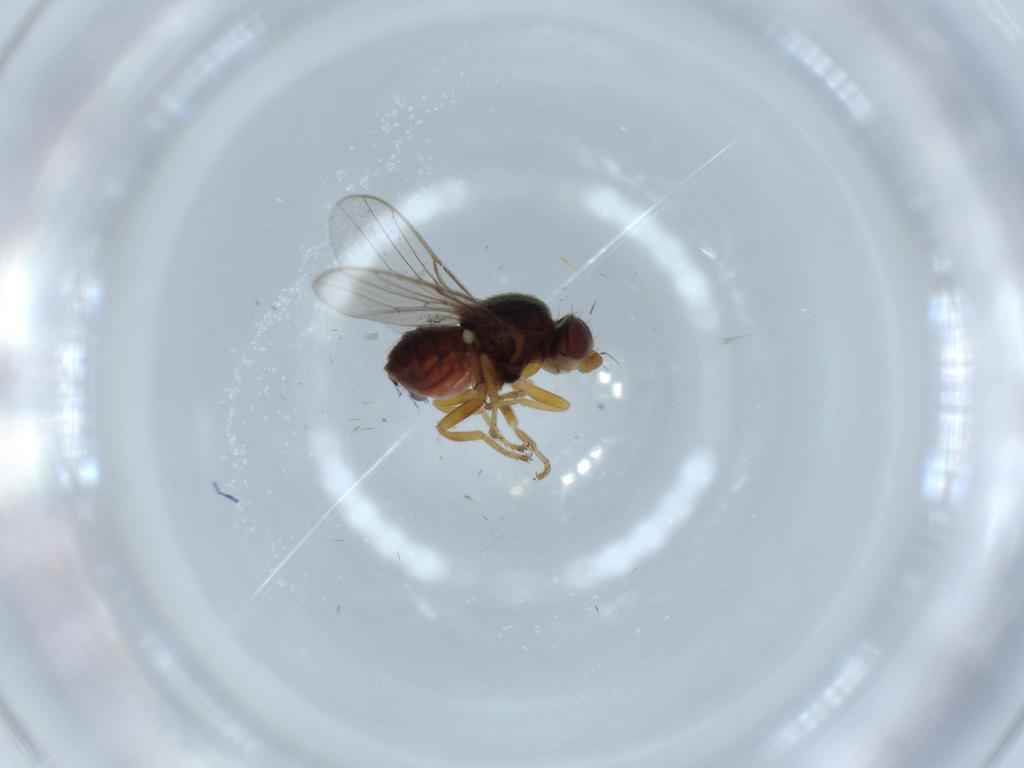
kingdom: Animalia
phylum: Arthropoda
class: Insecta
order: Diptera
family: Chloropidae
